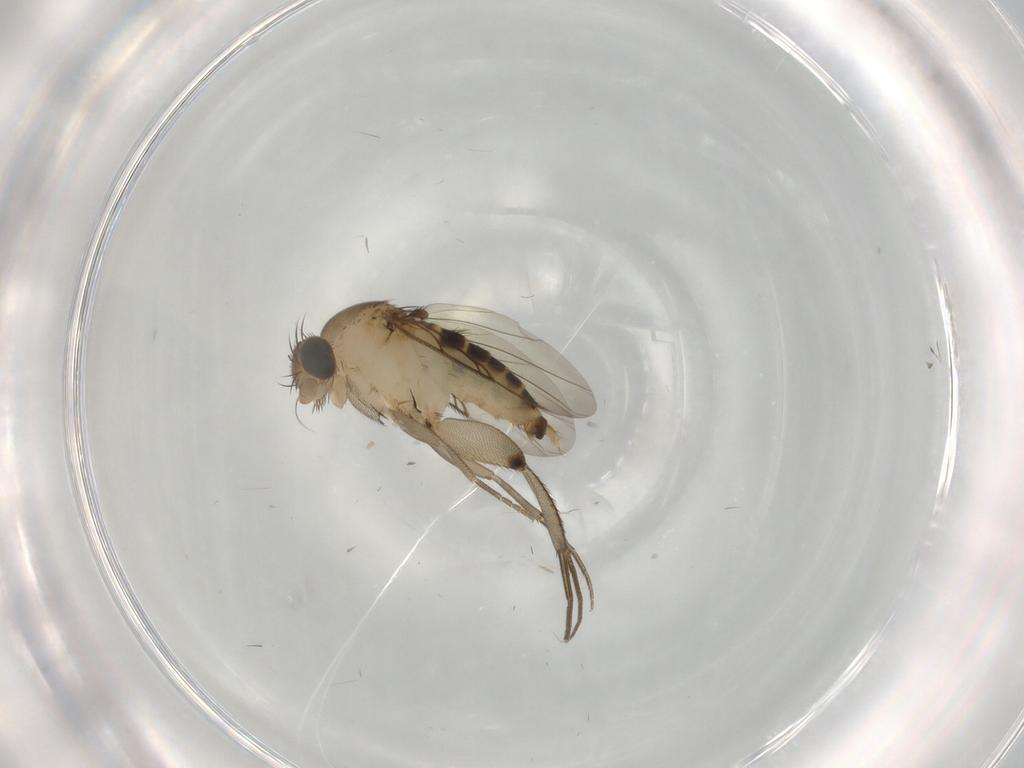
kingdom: Animalia
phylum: Arthropoda
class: Insecta
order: Diptera
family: Phoridae
